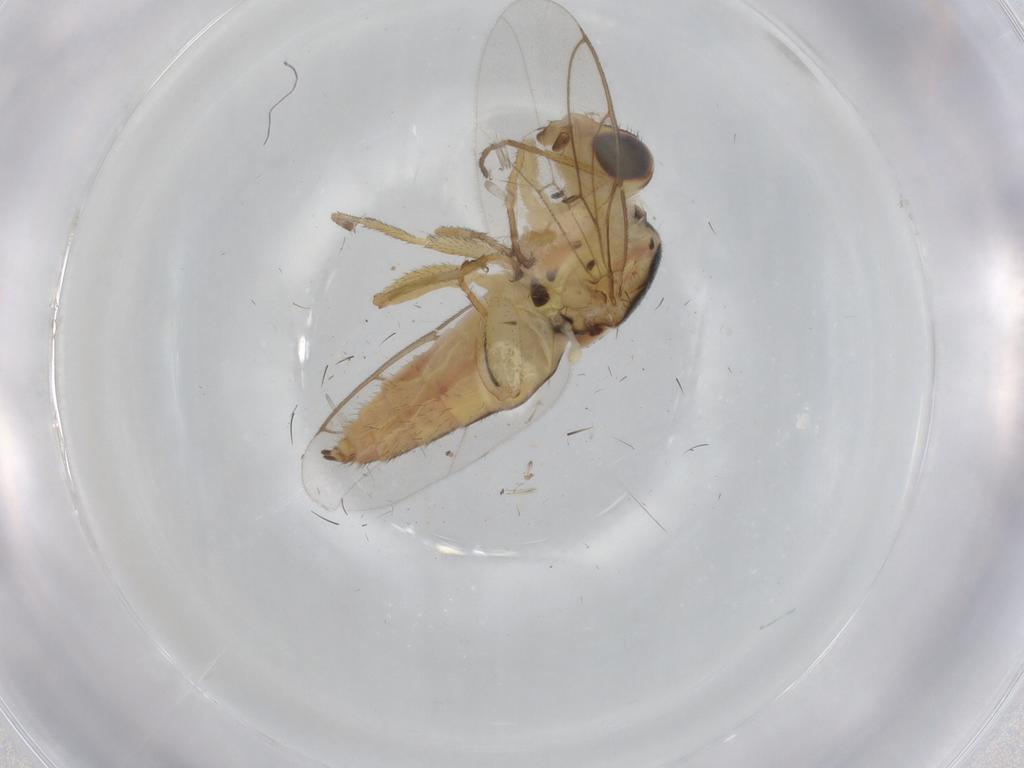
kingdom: Animalia
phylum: Arthropoda
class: Insecta
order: Diptera
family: Chloropidae
